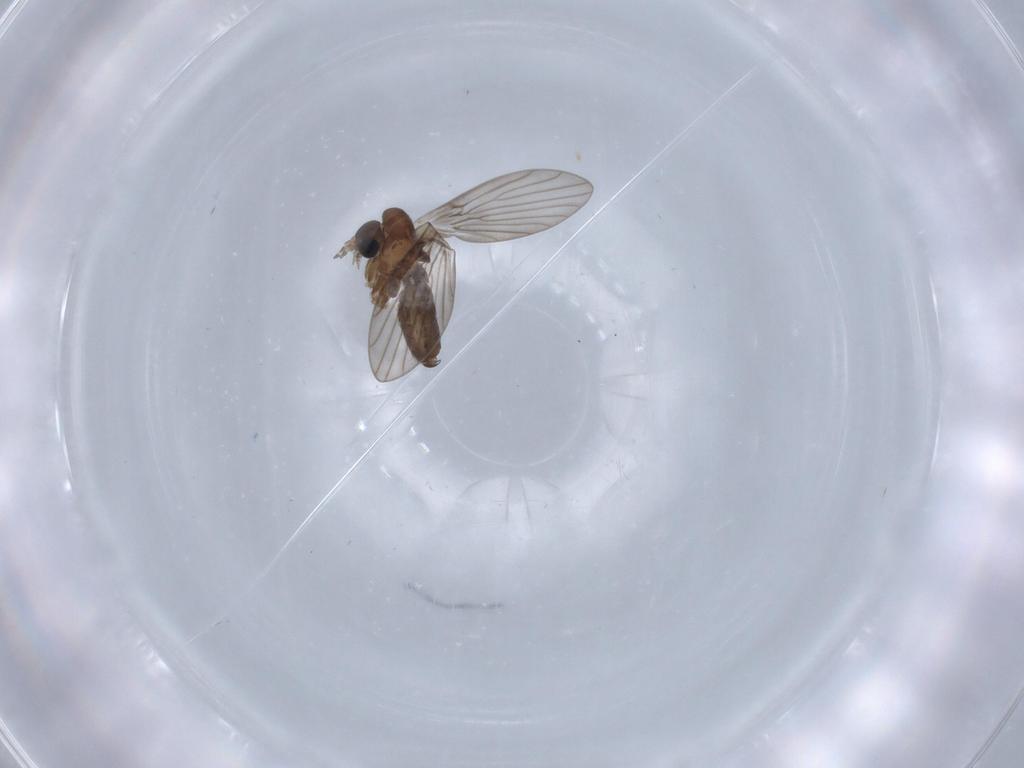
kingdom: Animalia
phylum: Arthropoda
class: Insecta
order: Diptera
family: Psychodidae
